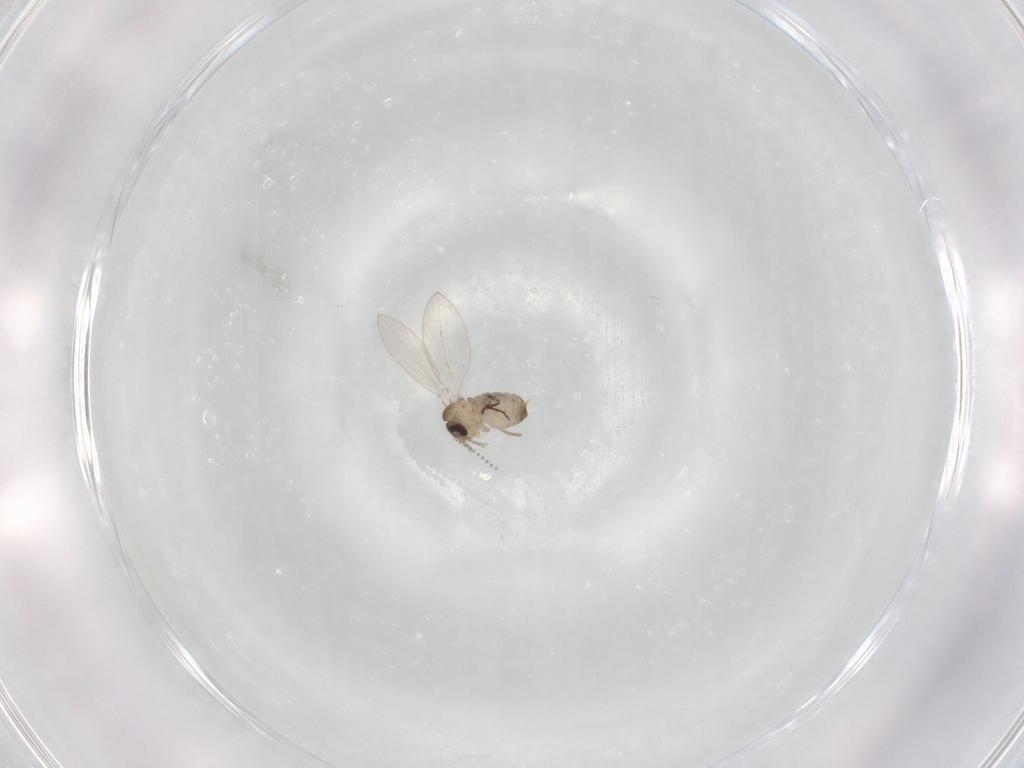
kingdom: Animalia
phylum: Arthropoda
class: Insecta
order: Diptera
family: Psychodidae
